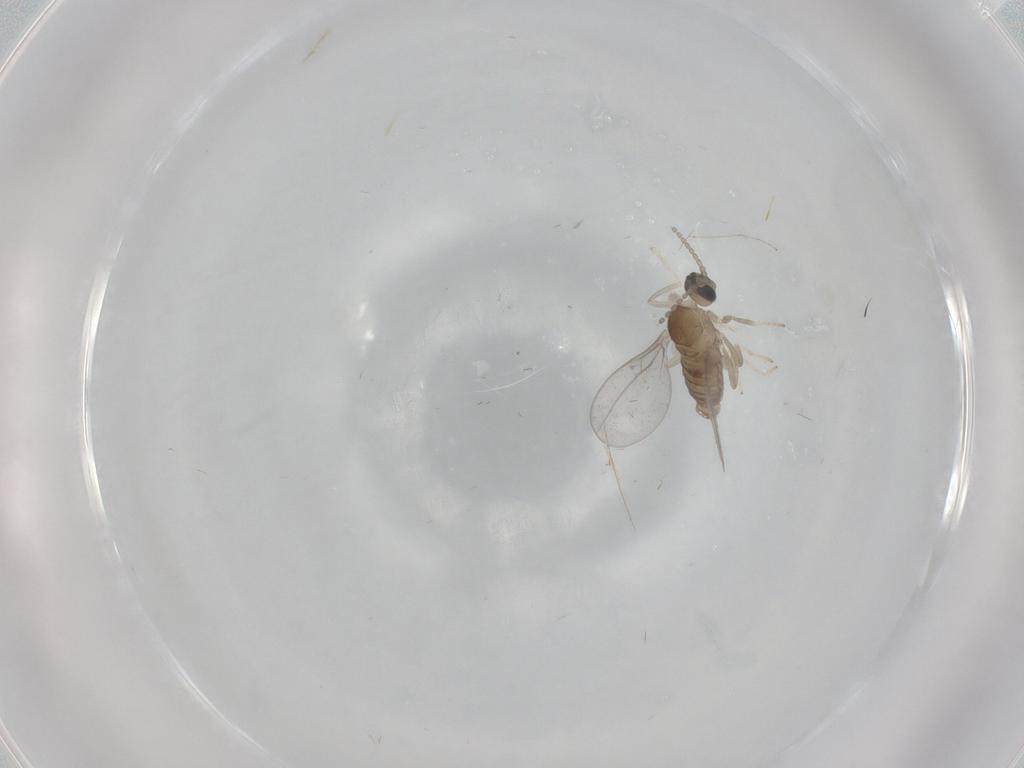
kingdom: Animalia
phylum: Arthropoda
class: Insecta
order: Diptera
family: Cecidomyiidae
